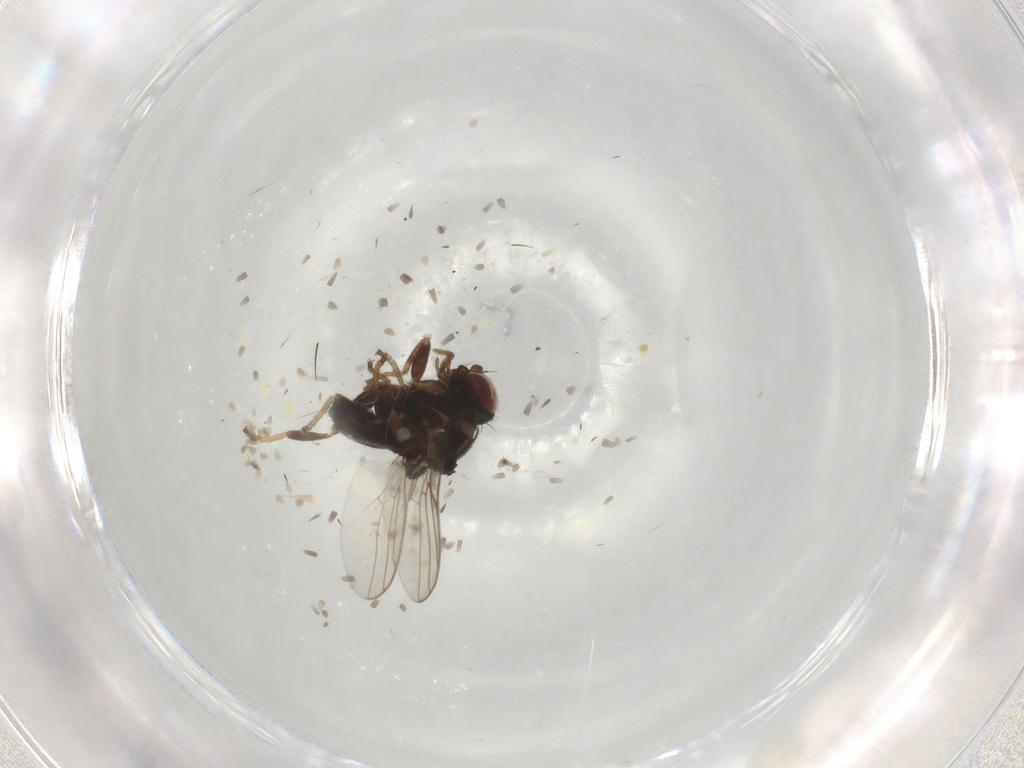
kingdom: Animalia
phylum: Arthropoda
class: Insecta
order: Diptera
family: Chloropidae
